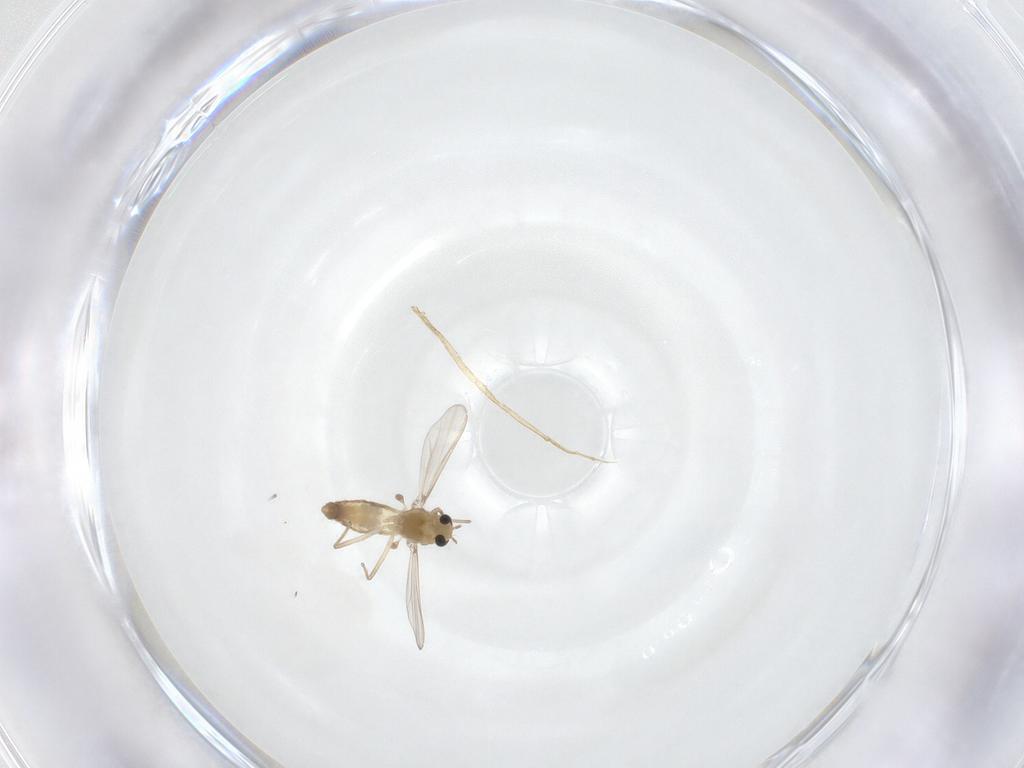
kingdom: Animalia
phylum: Arthropoda
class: Insecta
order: Diptera
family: Chironomidae
